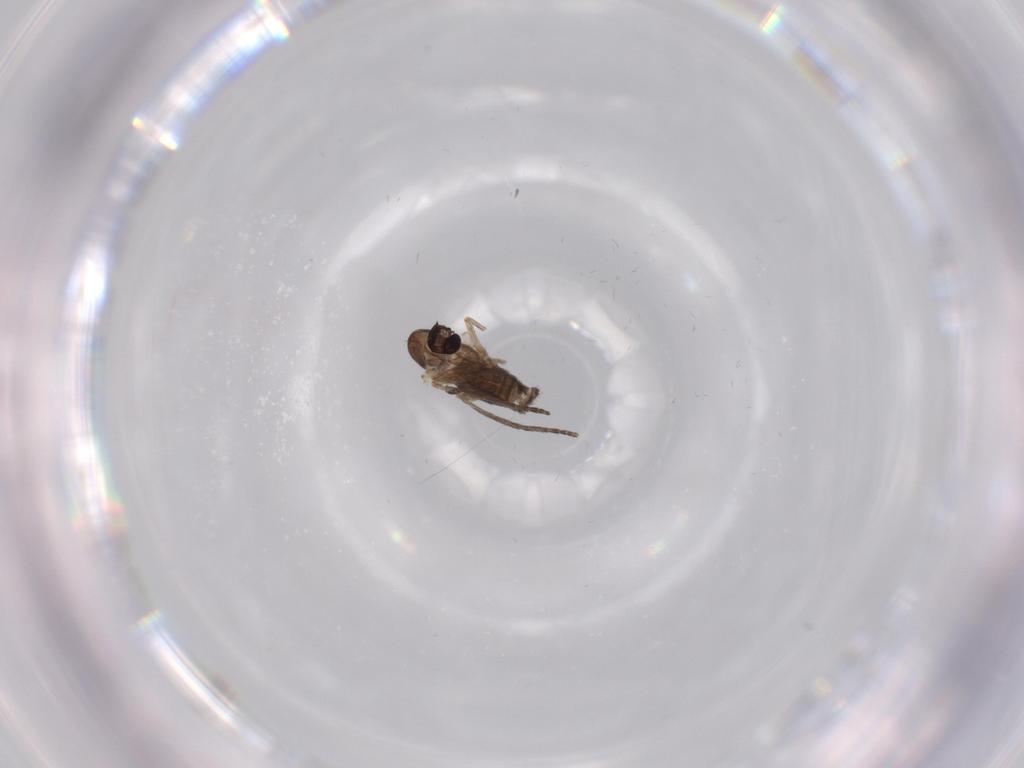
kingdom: Animalia
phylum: Arthropoda
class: Insecta
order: Diptera
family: Psychodidae
